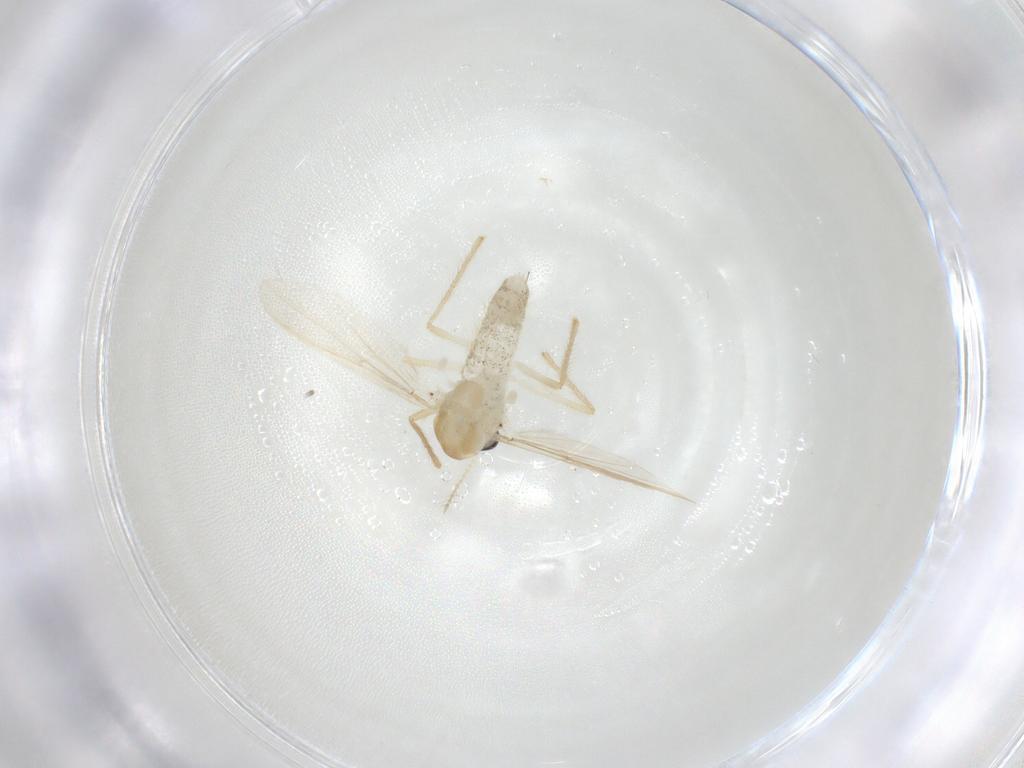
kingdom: Animalia
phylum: Arthropoda
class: Insecta
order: Diptera
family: Chironomidae
